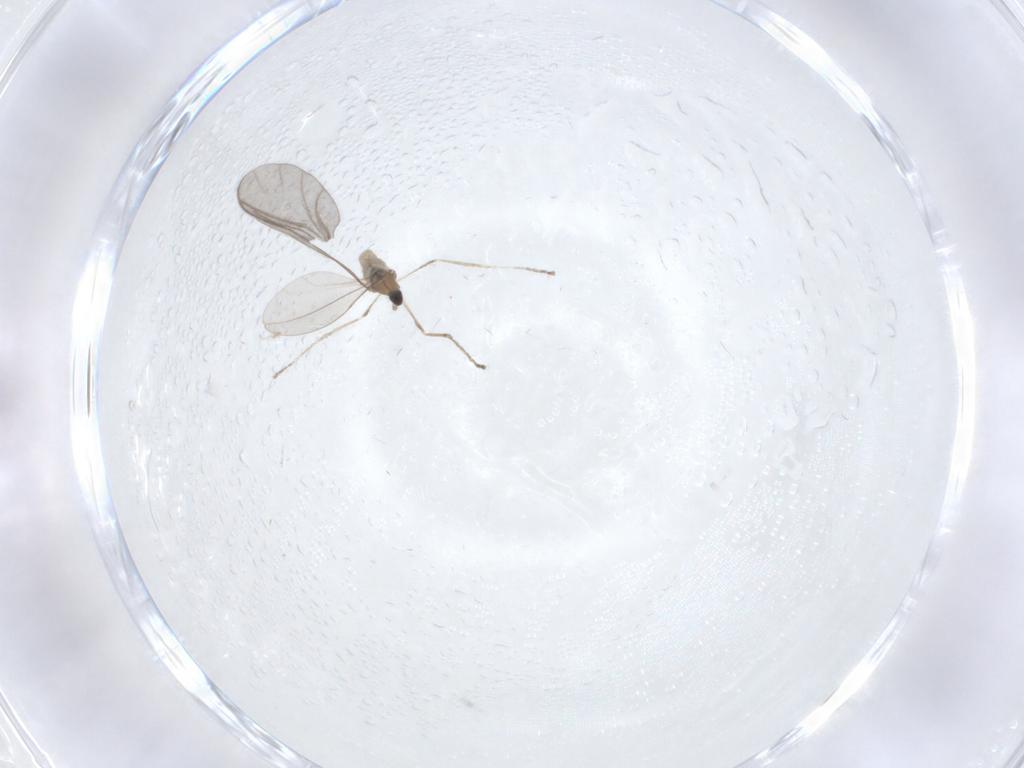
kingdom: Animalia
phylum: Arthropoda
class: Insecta
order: Diptera
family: Cecidomyiidae
